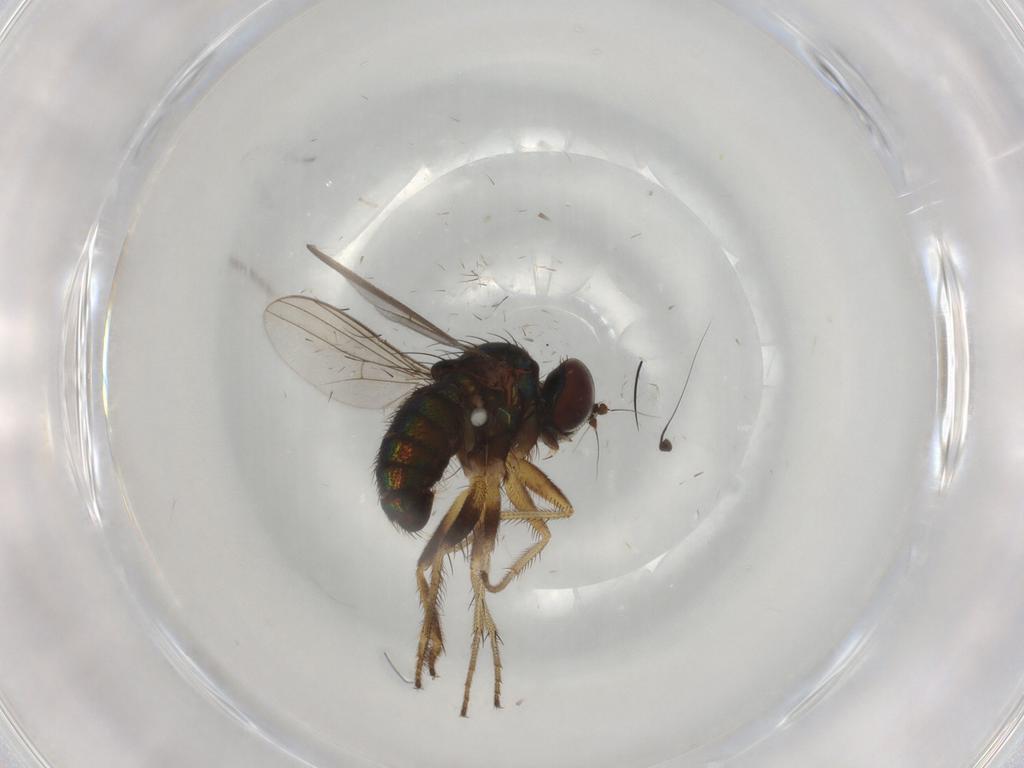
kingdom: Animalia
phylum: Arthropoda
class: Insecta
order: Diptera
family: Dolichopodidae
